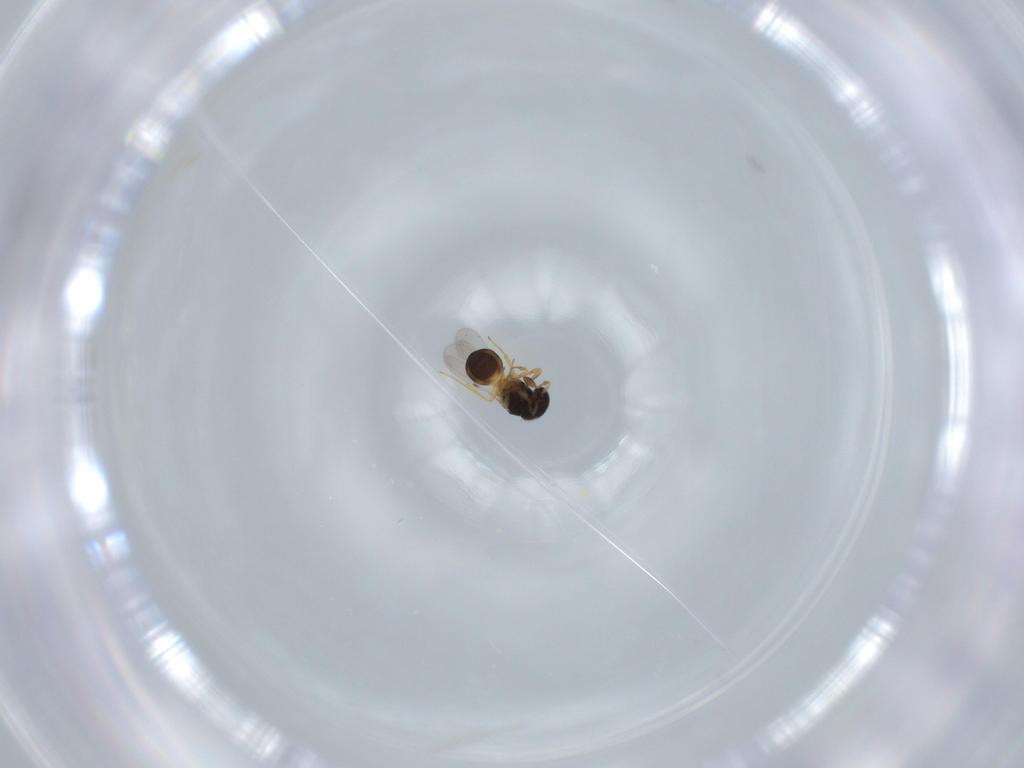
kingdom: Animalia
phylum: Arthropoda
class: Insecta
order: Hymenoptera
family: Scelionidae
